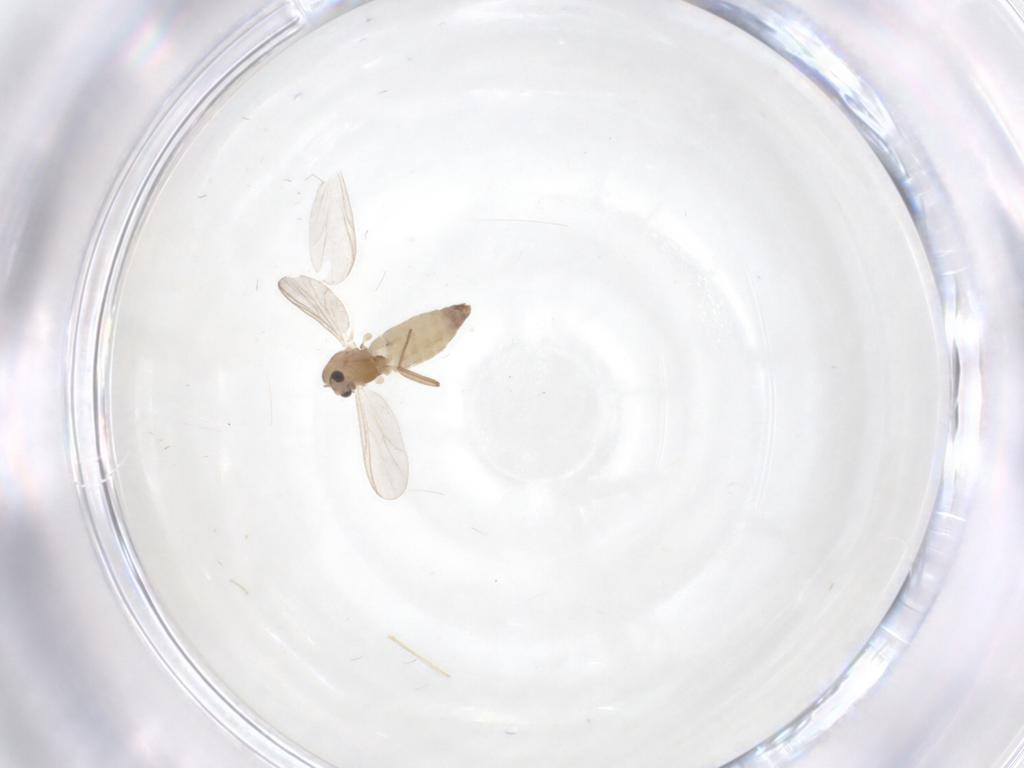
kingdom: Animalia
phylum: Arthropoda
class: Insecta
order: Diptera
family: Chironomidae
